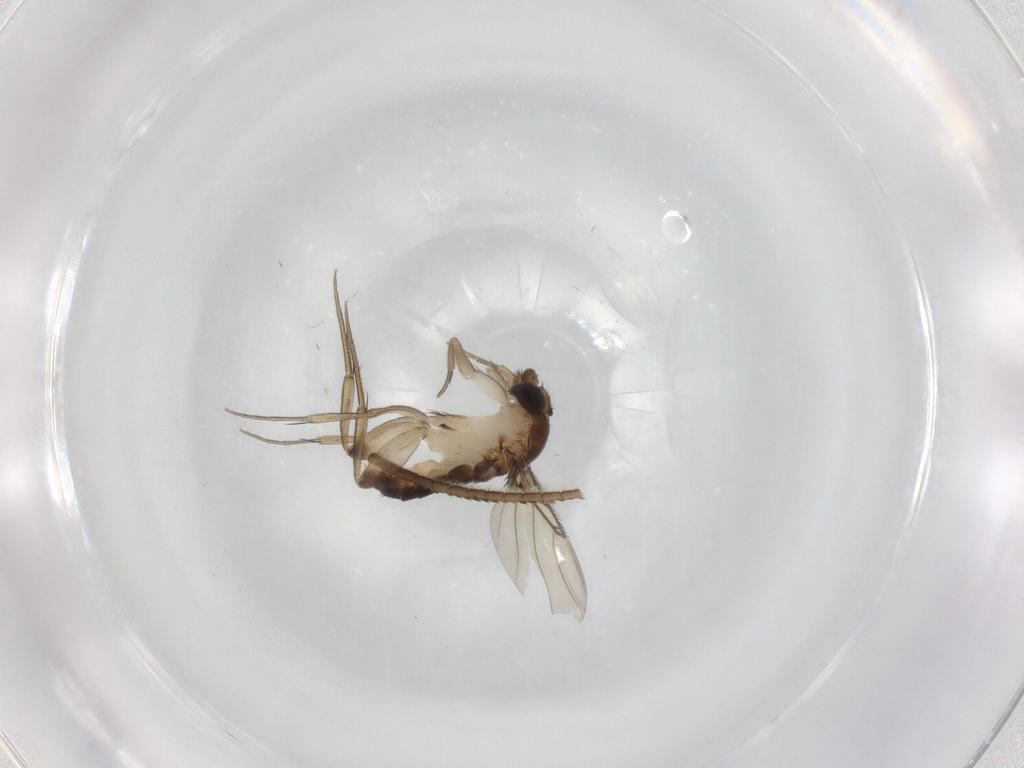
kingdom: Animalia
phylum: Arthropoda
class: Insecta
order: Diptera
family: Phoridae
